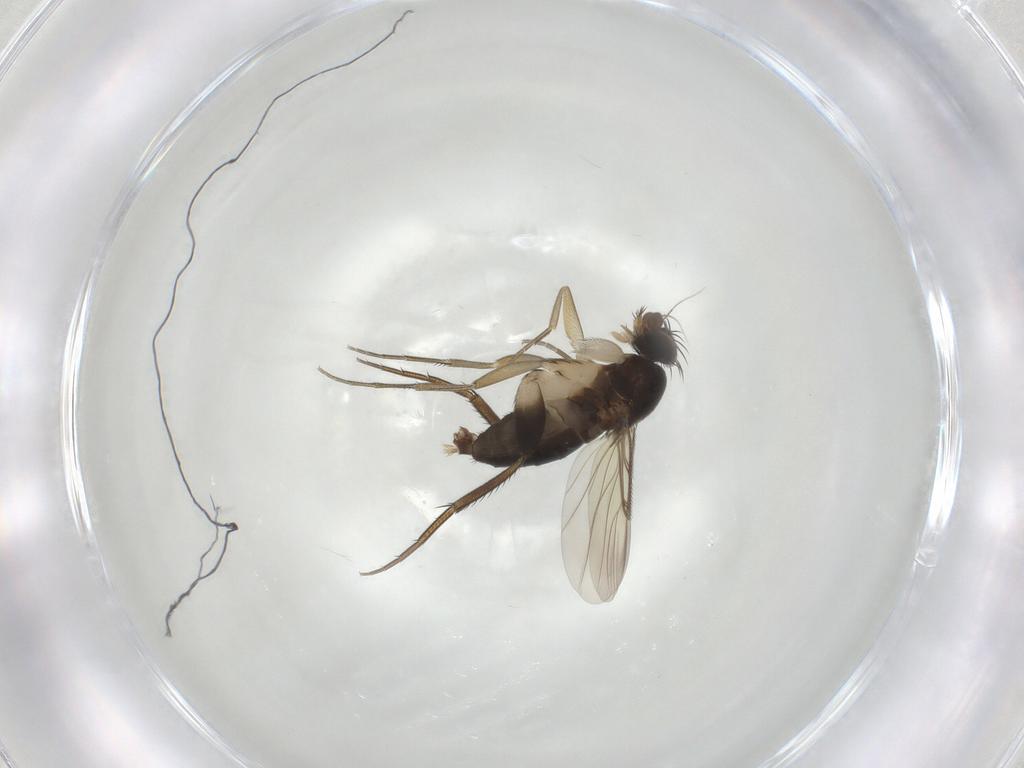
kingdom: Animalia
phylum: Arthropoda
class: Insecta
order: Diptera
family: Phoridae
